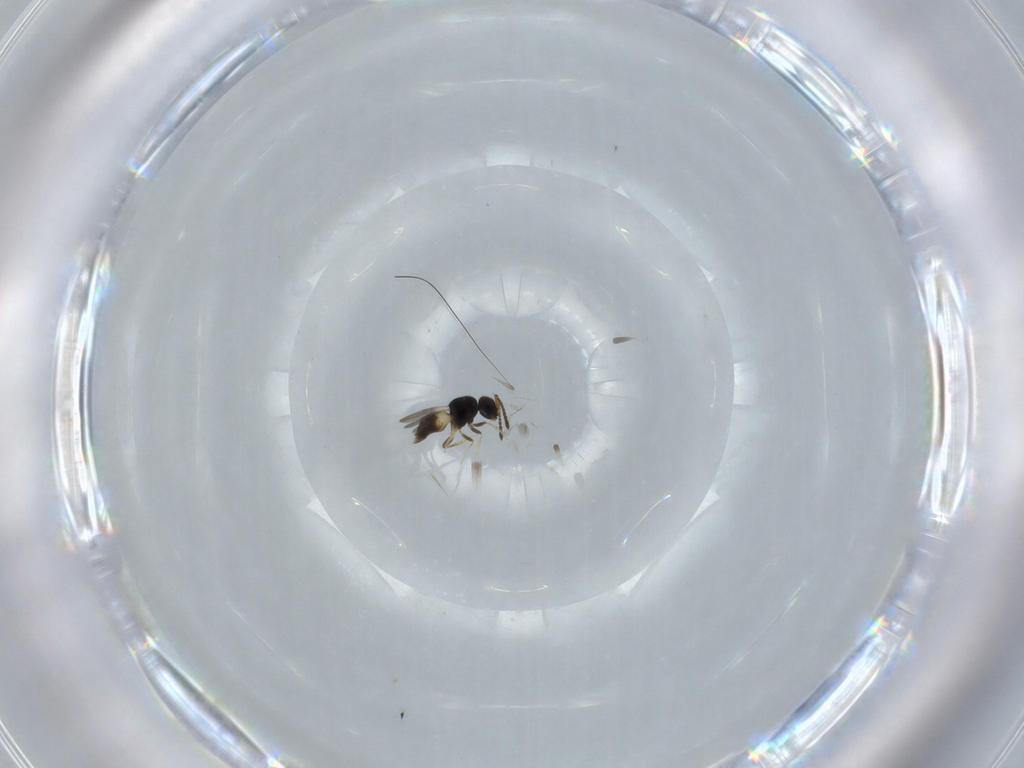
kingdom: Animalia
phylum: Arthropoda
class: Insecta
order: Hymenoptera
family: Ceraphronidae
